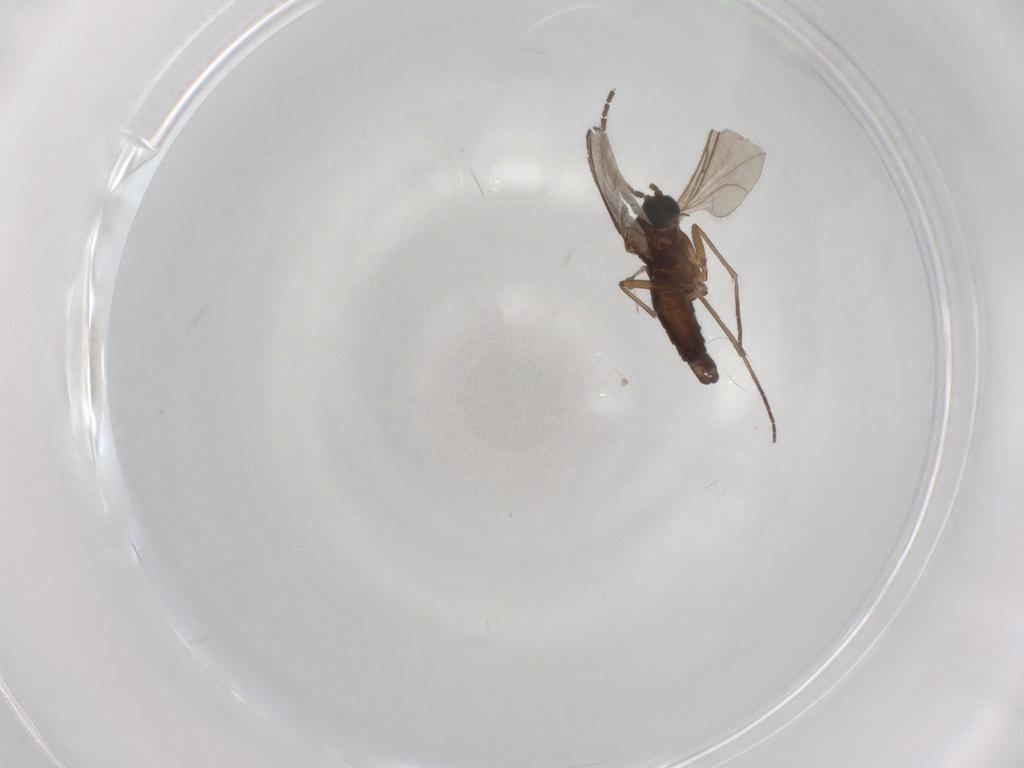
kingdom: Animalia
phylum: Arthropoda
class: Insecta
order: Diptera
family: Sciaridae
